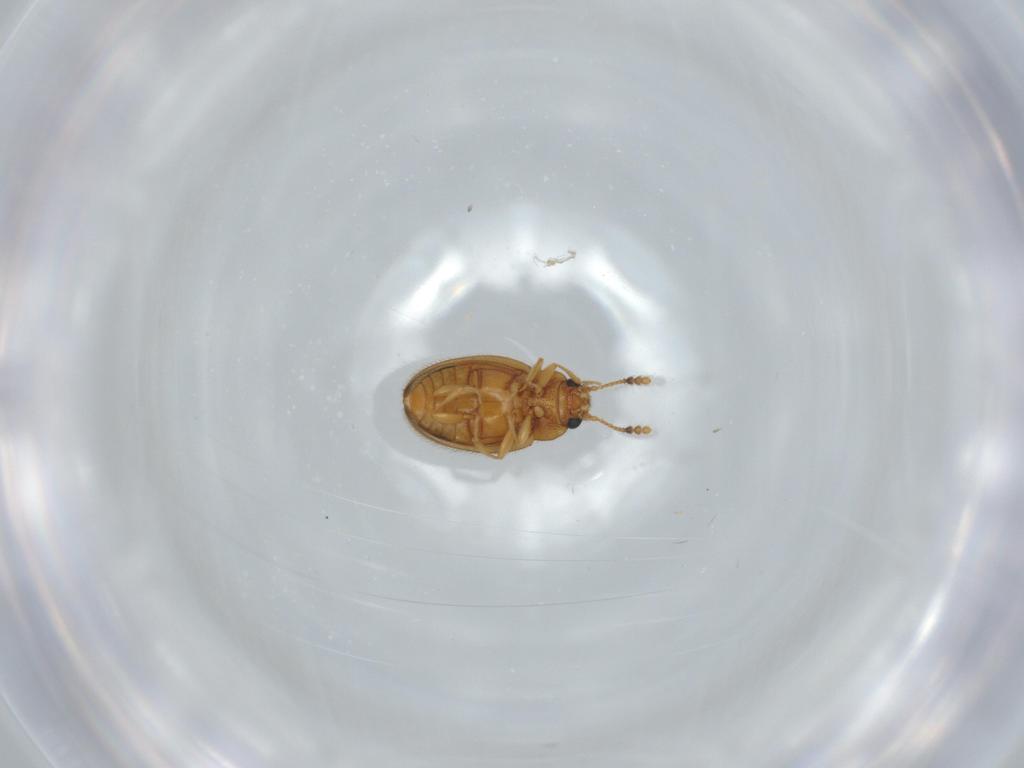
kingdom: Animalia
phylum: Arthropoda
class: Insecta
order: Coleoptera
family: Erotylidae
